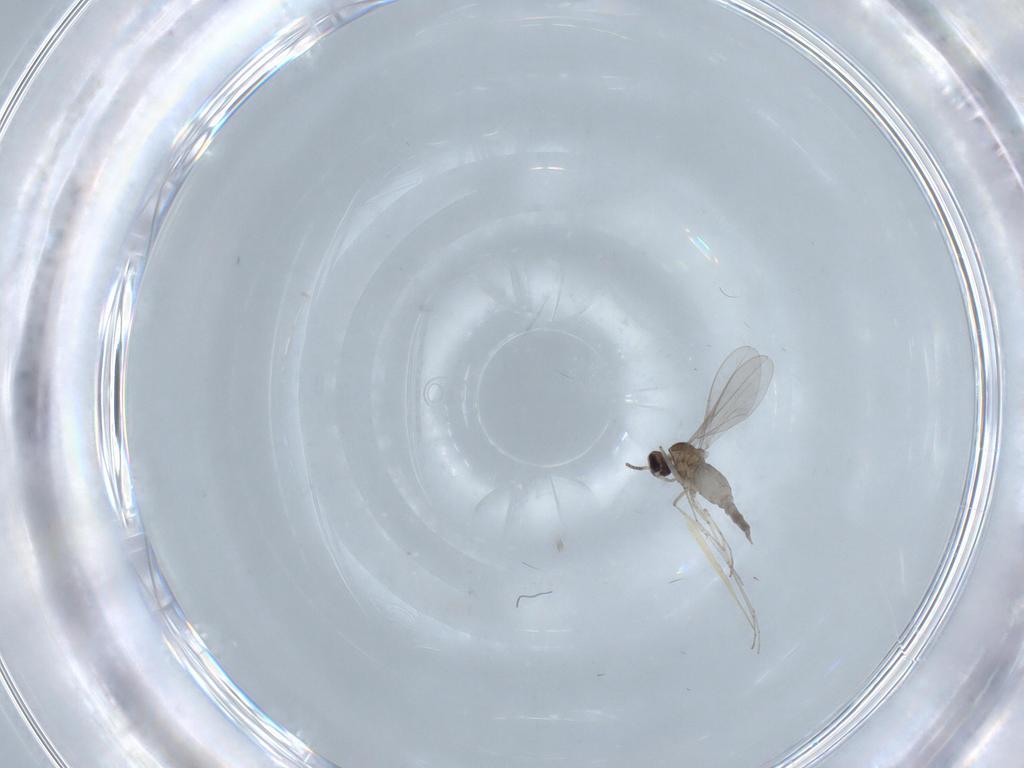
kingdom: Animalia
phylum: Arthropoda
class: Insecta
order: Diptera
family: Cecidomyiidae
